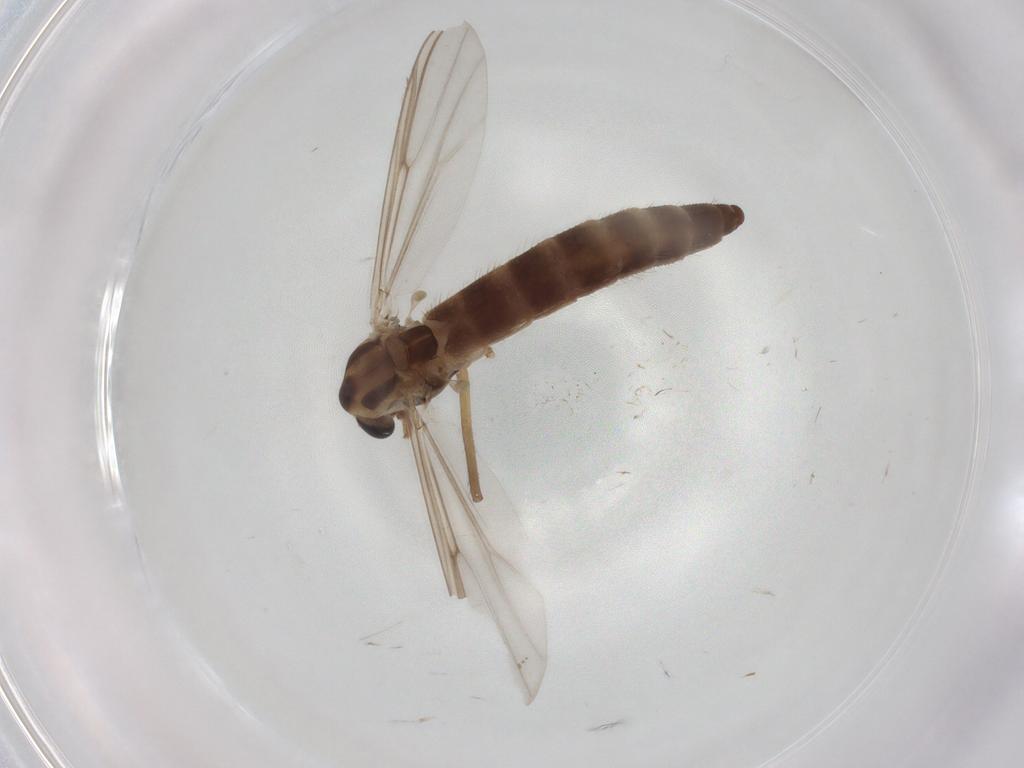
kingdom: Animalia
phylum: Arthropoda
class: Insecta
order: Diptera
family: Chironomidae
